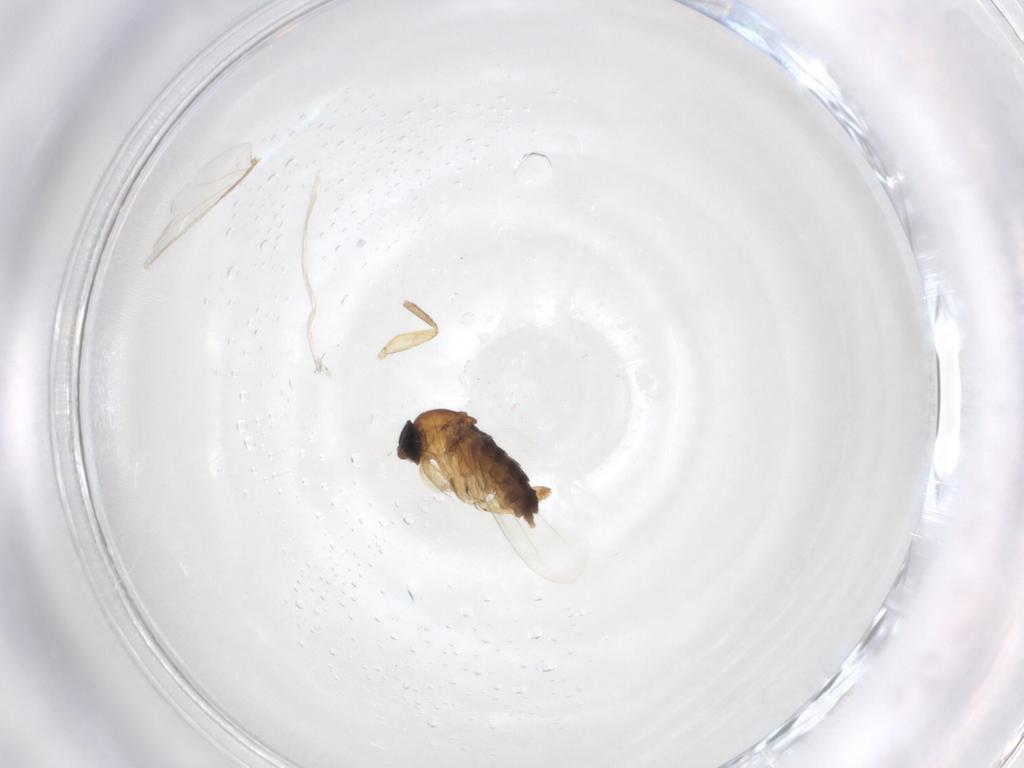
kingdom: Animalia
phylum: Arthropoda
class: Insecta
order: Diptera
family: Phoridae
